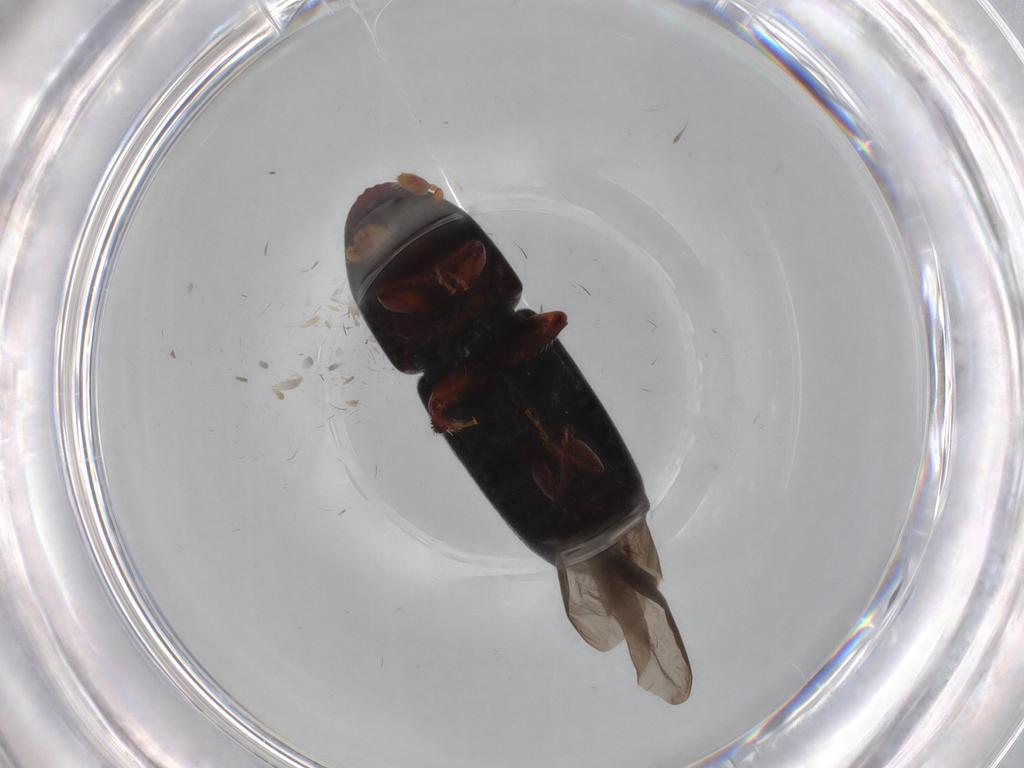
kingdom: Animalia
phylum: Arthropoda
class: Insecta
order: Coleoptera
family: Curculionidae
